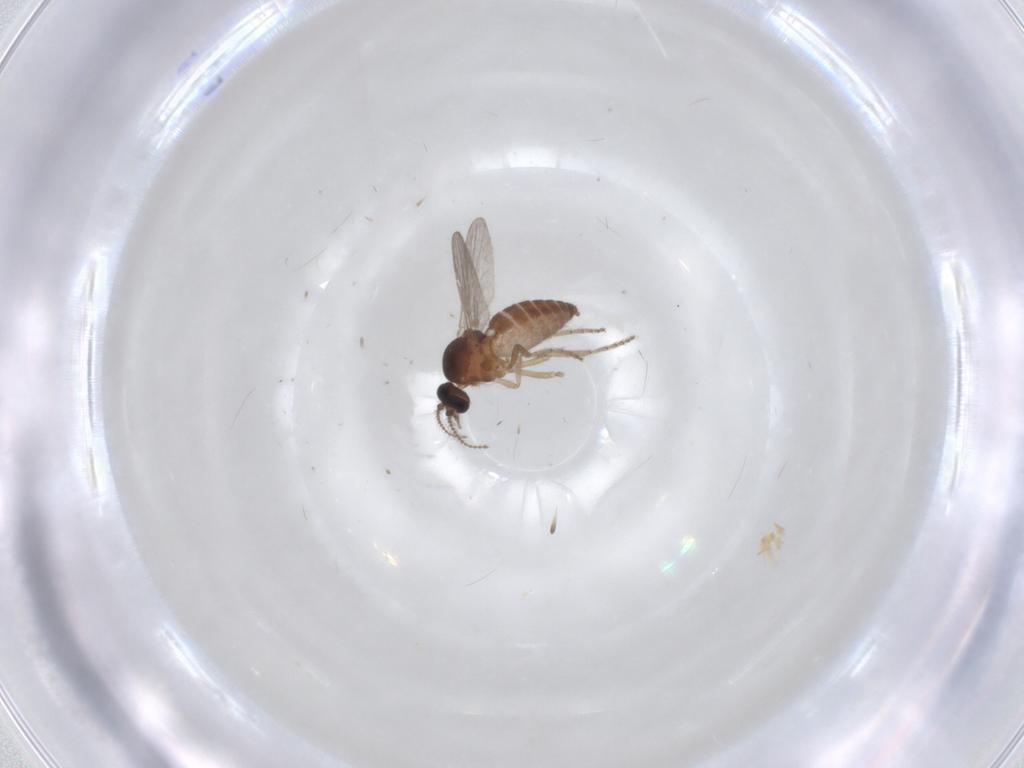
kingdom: Animalia
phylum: Arthropoda
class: Insecta
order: Diptera
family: Ceratopogonidae
